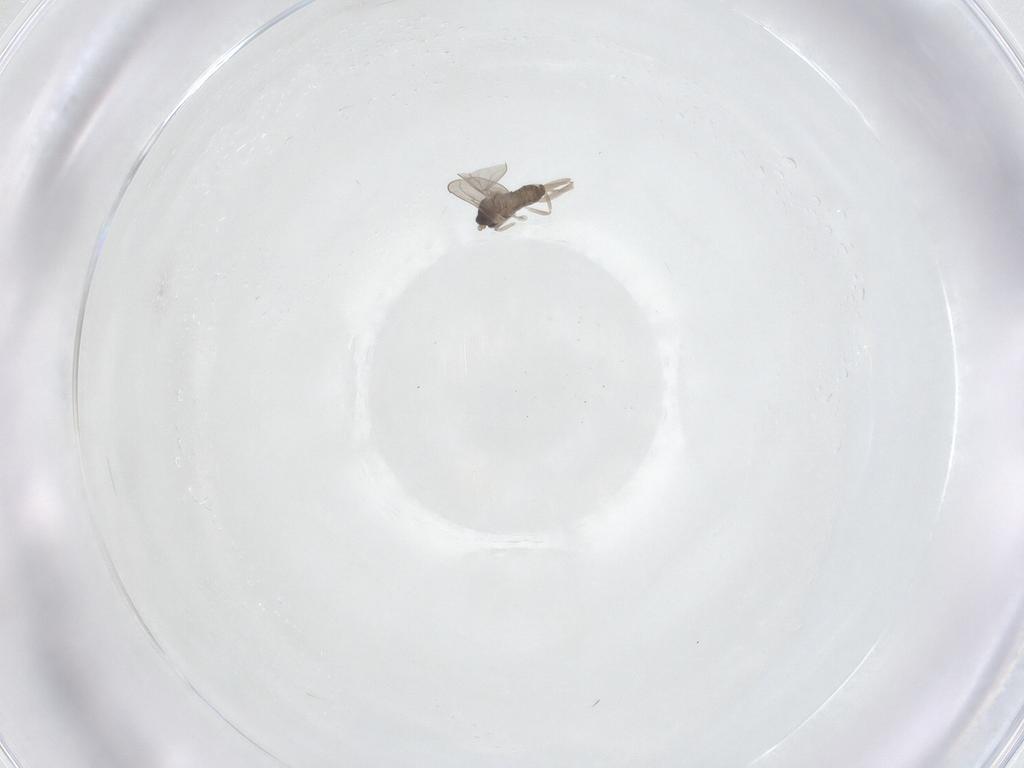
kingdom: Animalia
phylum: Arthropoda
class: Insecta
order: Diptera
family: Cecidomyiidae
